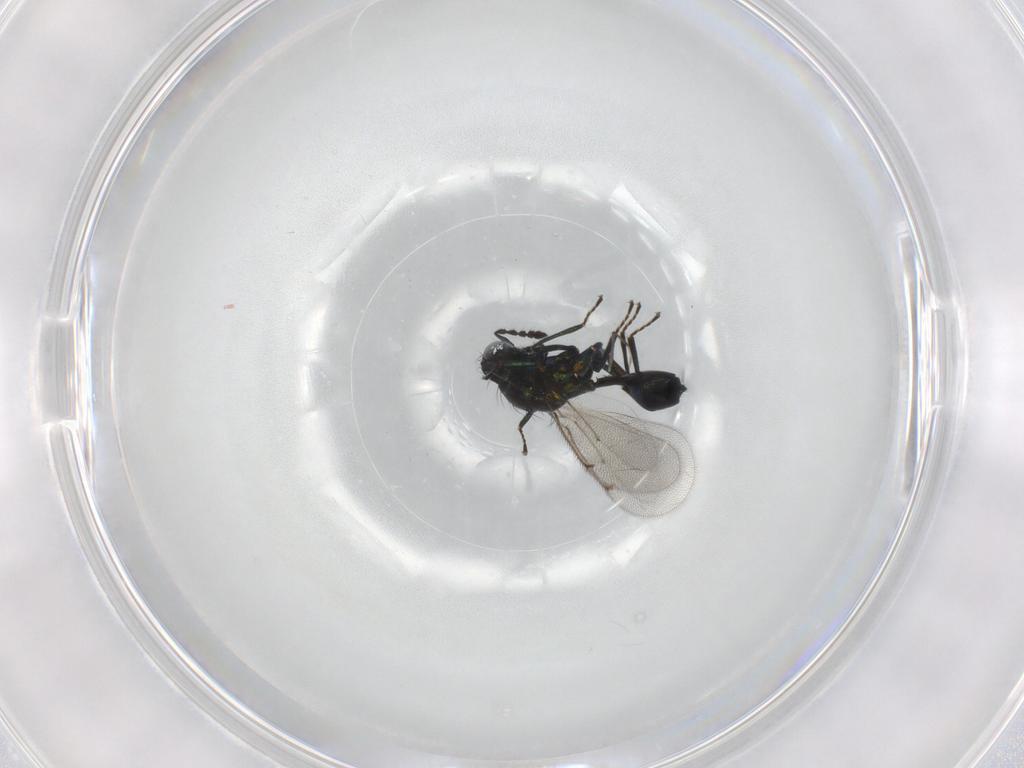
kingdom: Animalia
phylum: Arthropoda
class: Insecta
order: Hymenoptera
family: Eulophidae
